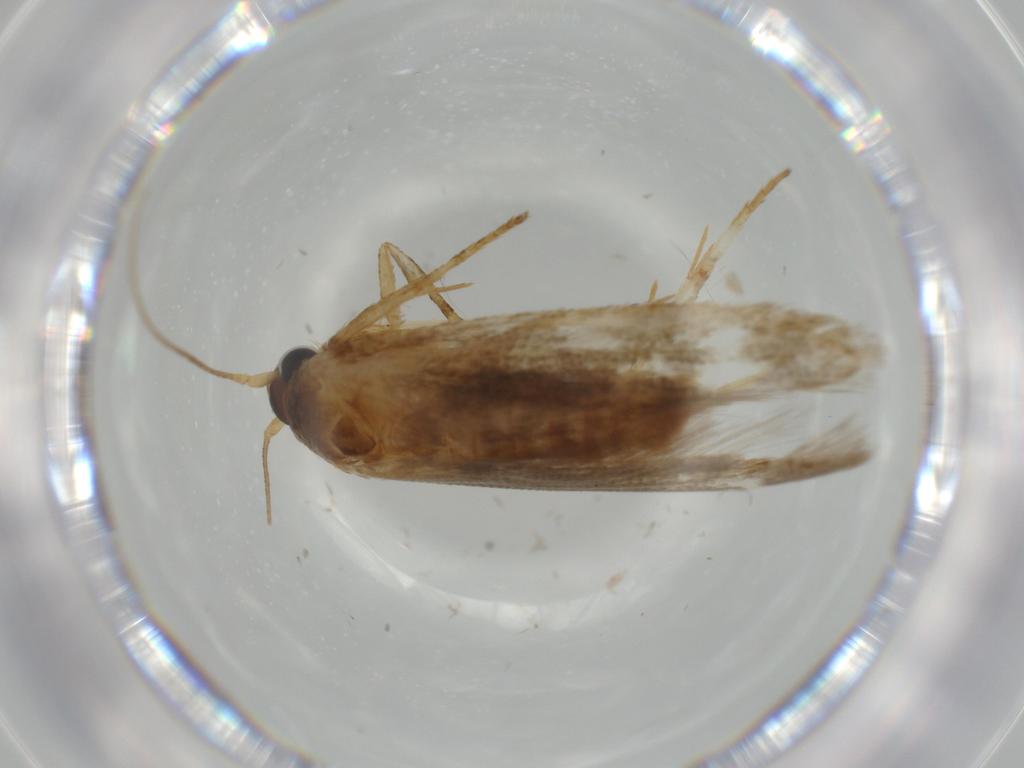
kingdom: Animalia
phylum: Arthropoda
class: Insecta
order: Lepidoptera
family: Blastobasidae
